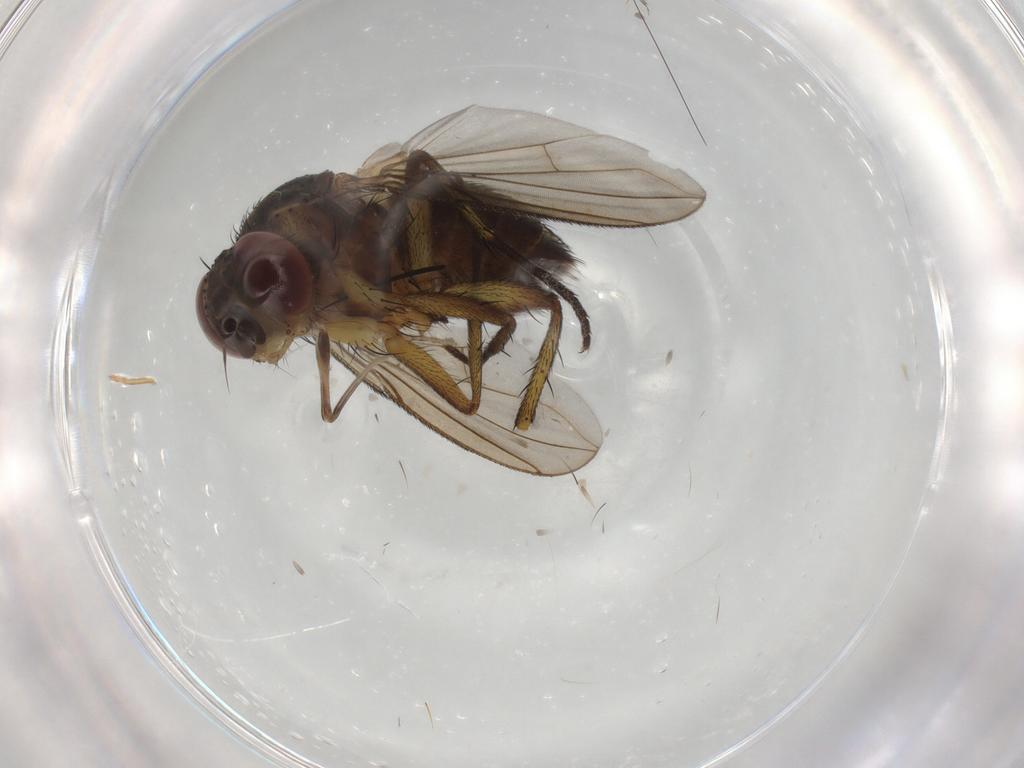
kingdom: Animalia
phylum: Arthropoda
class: Insecta
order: Diptera
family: Tachinidae
